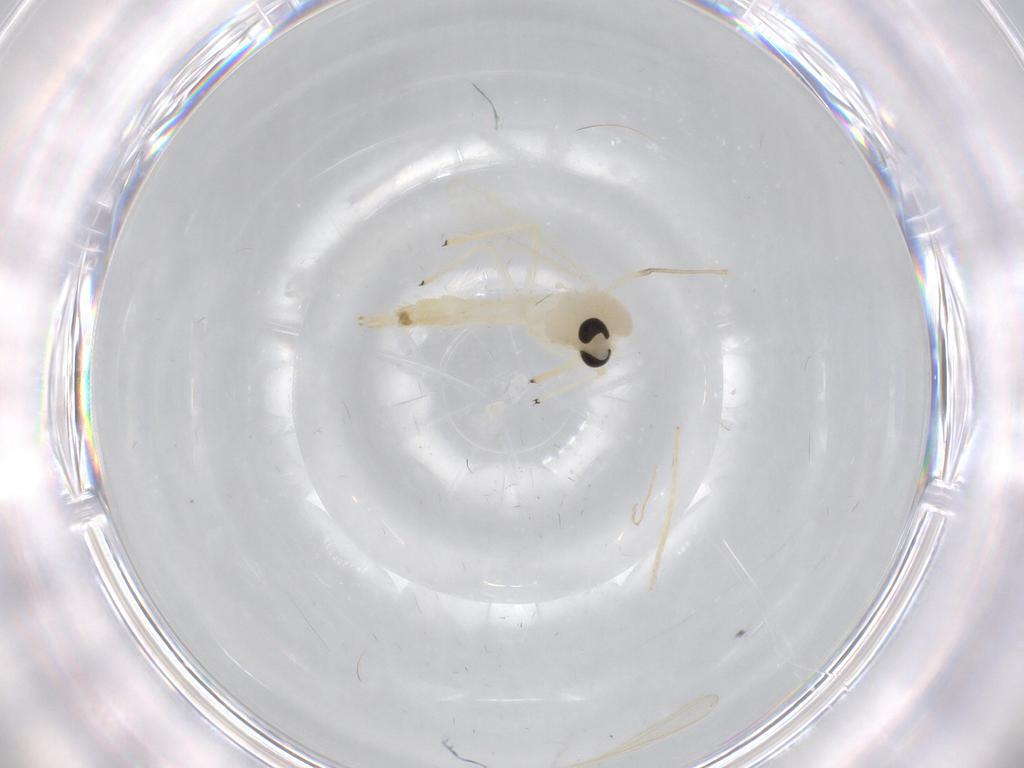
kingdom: Animalia
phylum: Arthropoda
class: Insecta
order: Diptera
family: Chironomidae
